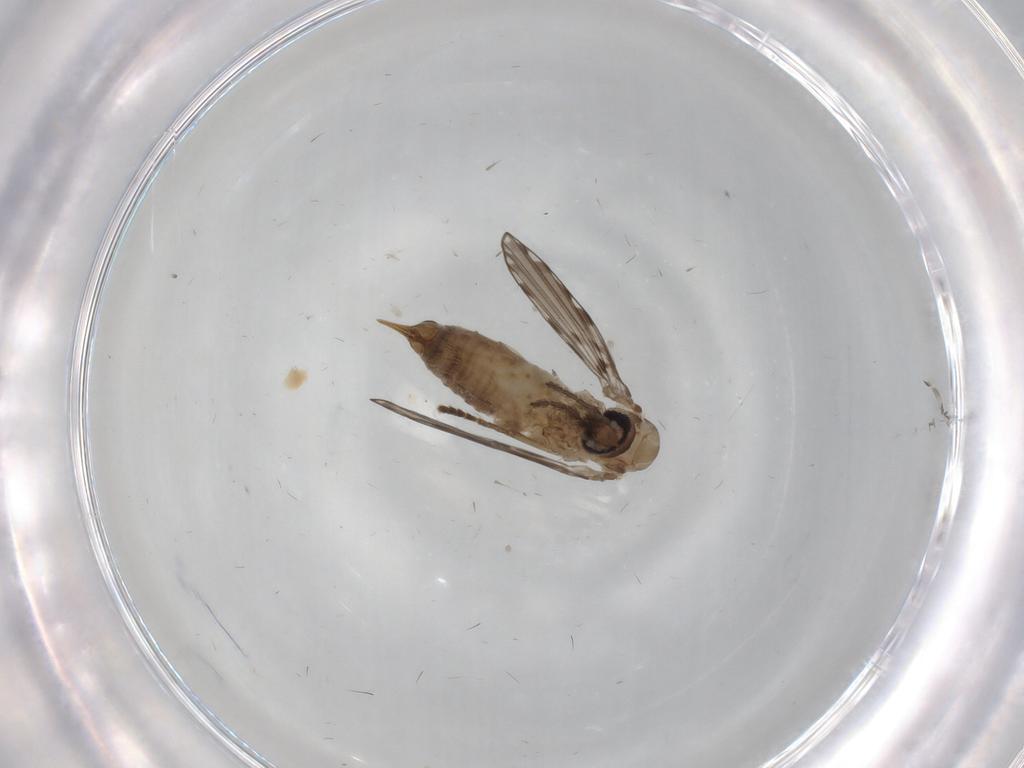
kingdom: Animalia
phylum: Arthropoda
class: Insecta
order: Diptera
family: Psychodidae
